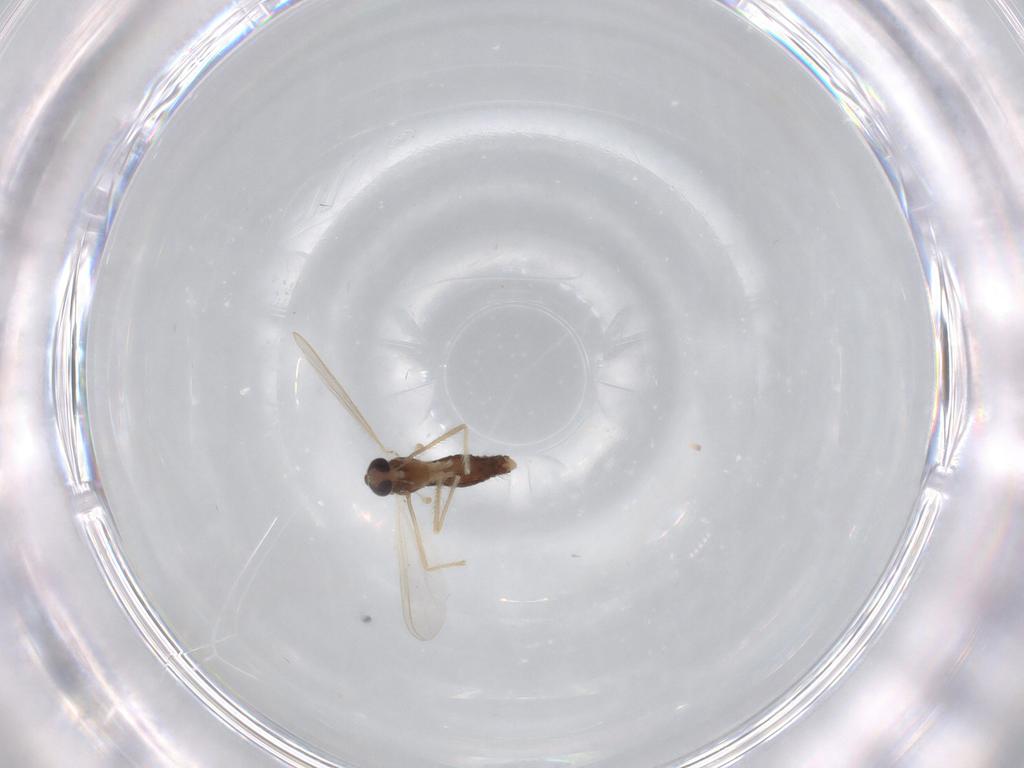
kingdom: Animalia
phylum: Arthropoda
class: Insecta
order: Diptera
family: Chironomidae
